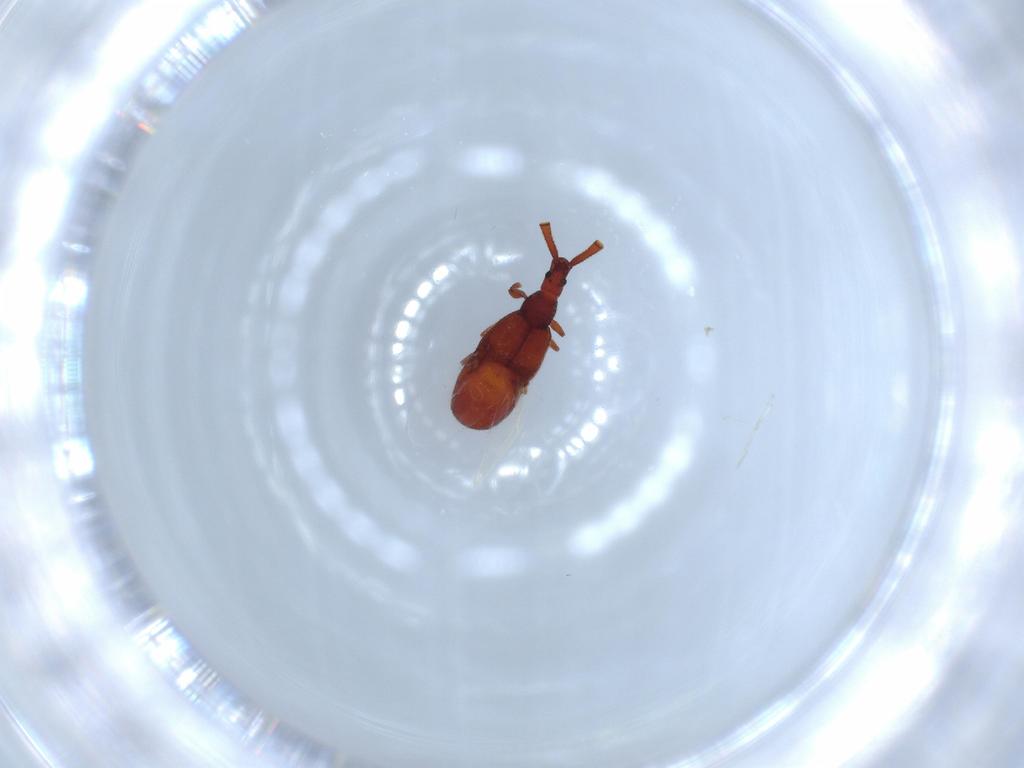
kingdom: Animalia
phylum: Arthropoda
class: Insecta
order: Coleoptera
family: Staphylinidae
